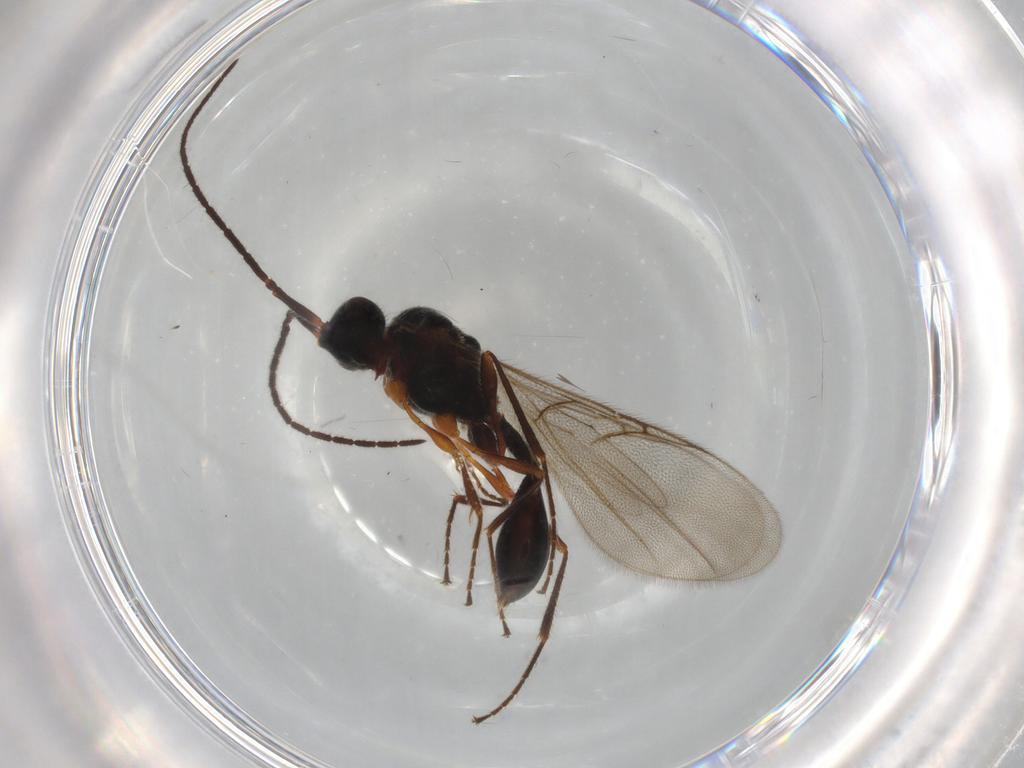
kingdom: Animalia
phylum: Arthropoda
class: Insecta
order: Hymenoptera
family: Diapriidae
